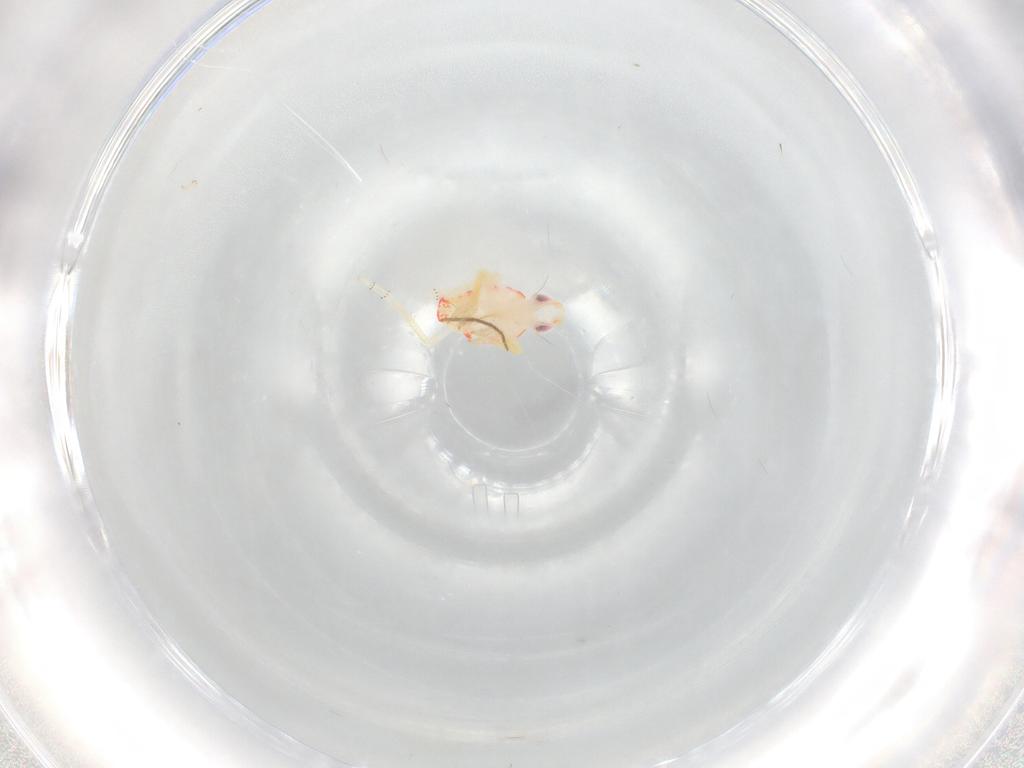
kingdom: Animalia
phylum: Arthropoda
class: Insecta
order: Hemiptera
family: Tropiduchidae
